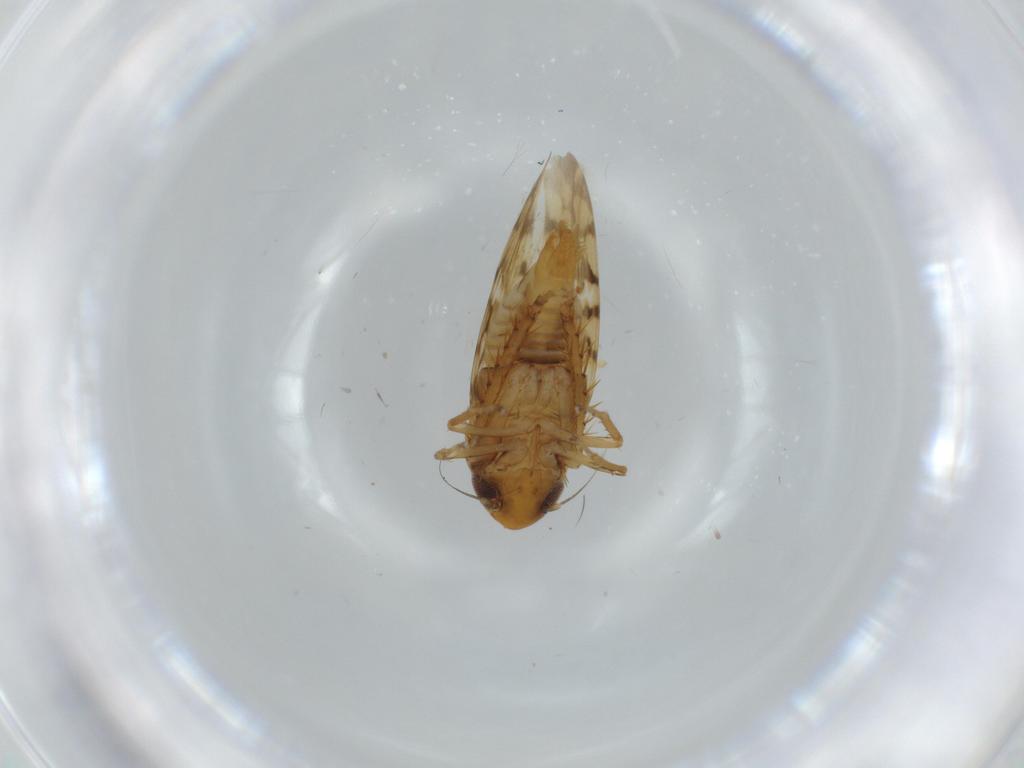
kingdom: Animalia
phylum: Arthropoda
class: Insecta
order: Hemiptera
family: Cicadellidae
